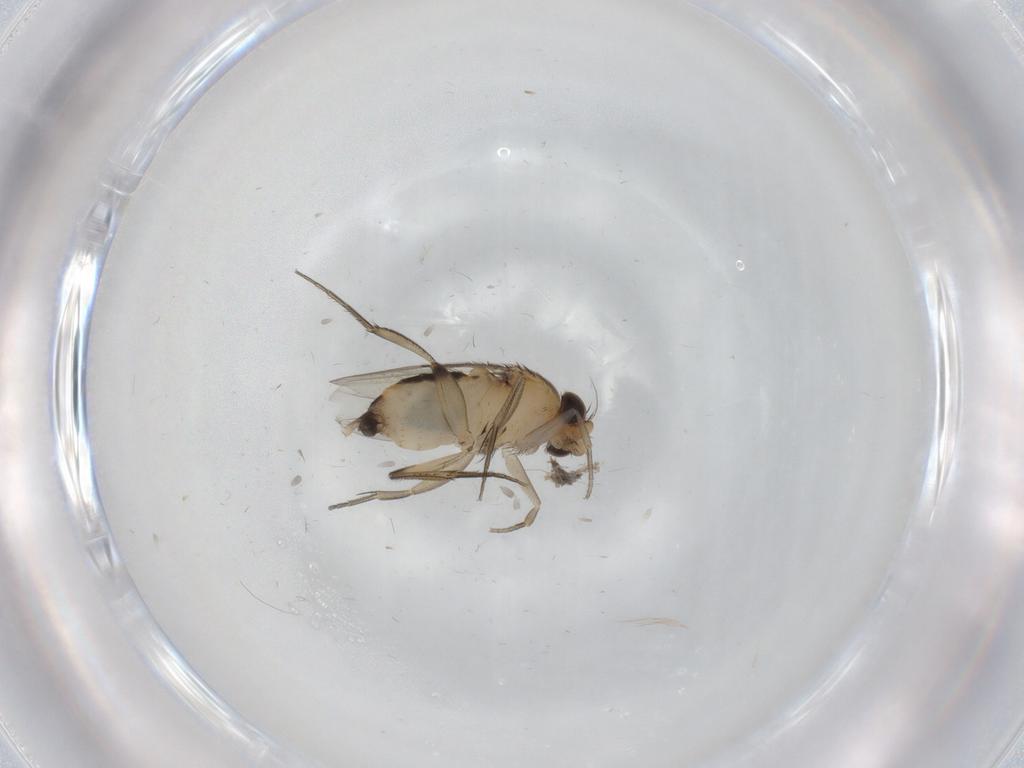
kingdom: Animalia
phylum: Arthropoda
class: Insecta
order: Diptera
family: Phoridae
